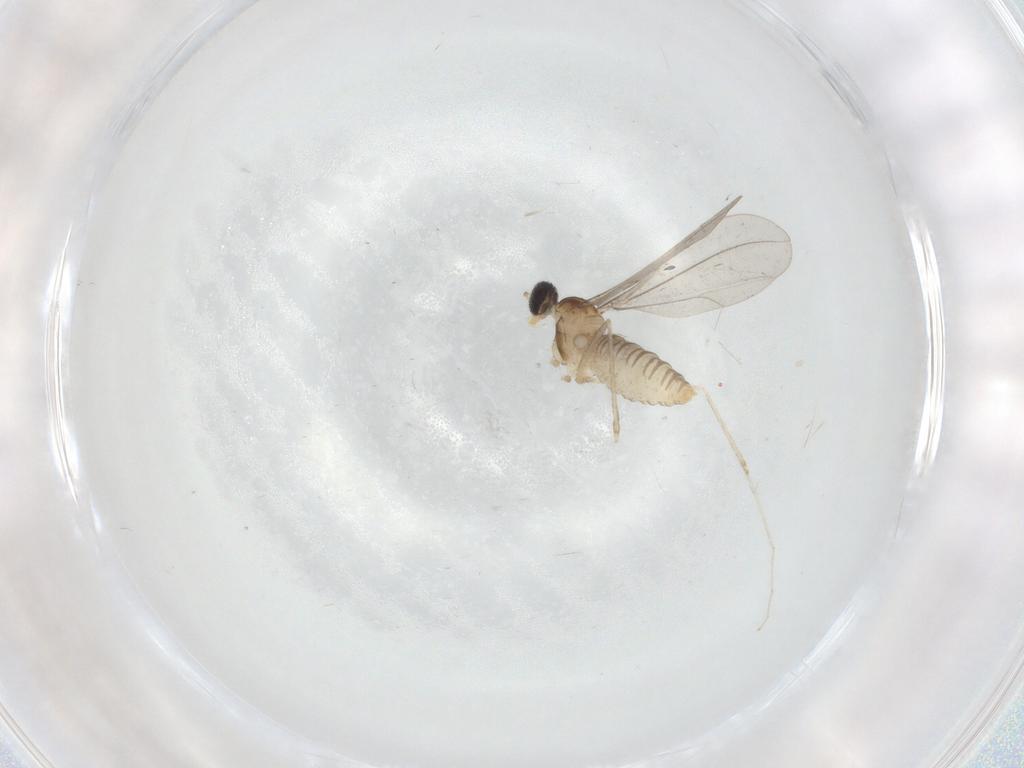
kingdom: Animalia
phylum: Arthropoda
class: Insecta
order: Diptera
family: Cecidomyiidae
